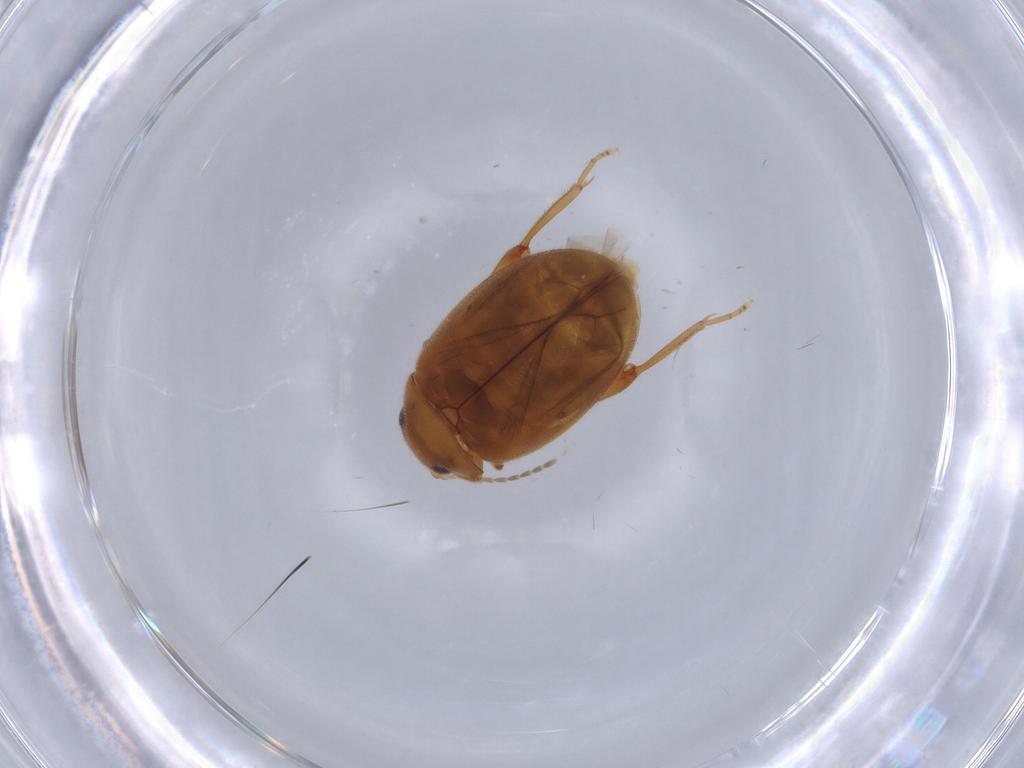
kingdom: Animalia
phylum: Arthropoda
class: Insecta
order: Coleoptera
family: Scirtidae
